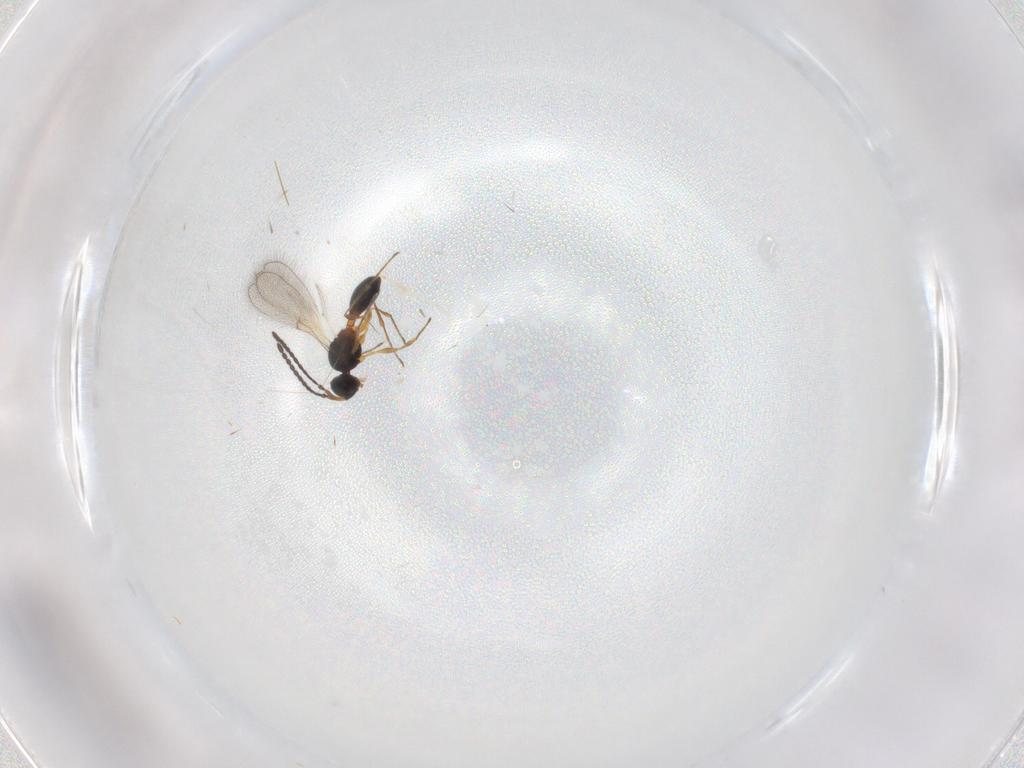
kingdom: Animalia
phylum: Arthropoda
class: Insecta
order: Hymenoptera
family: Diapriidae
